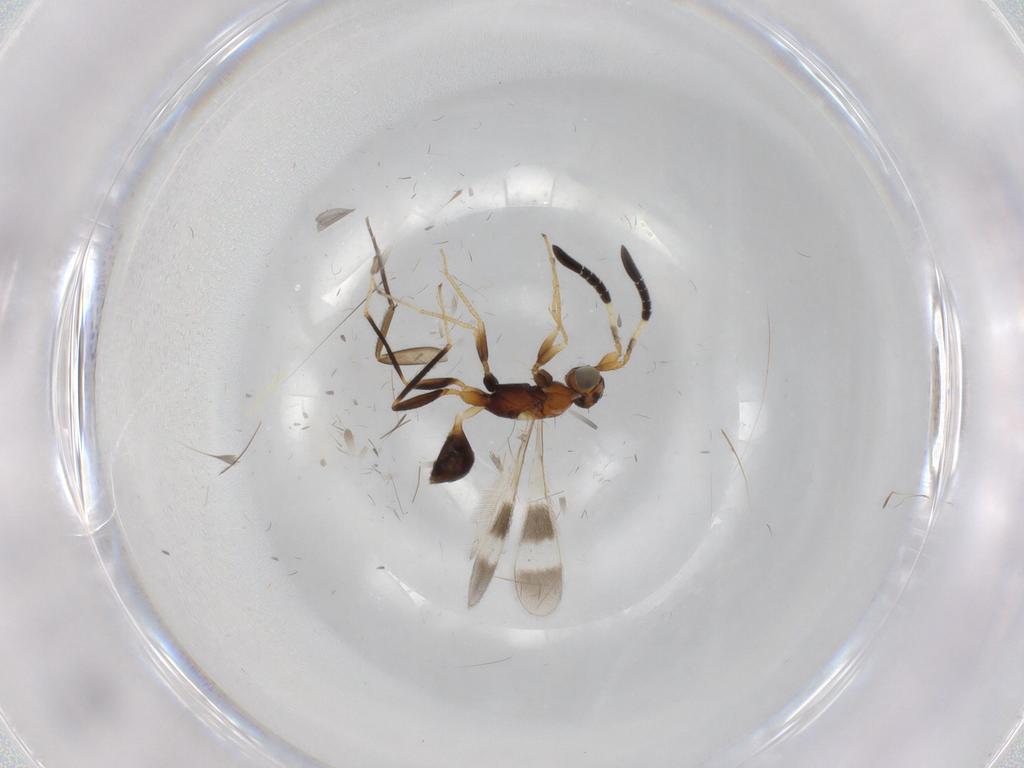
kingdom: Animalia
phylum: Arthropoda
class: Insecta
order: Hymenoptera
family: Mymaridae
